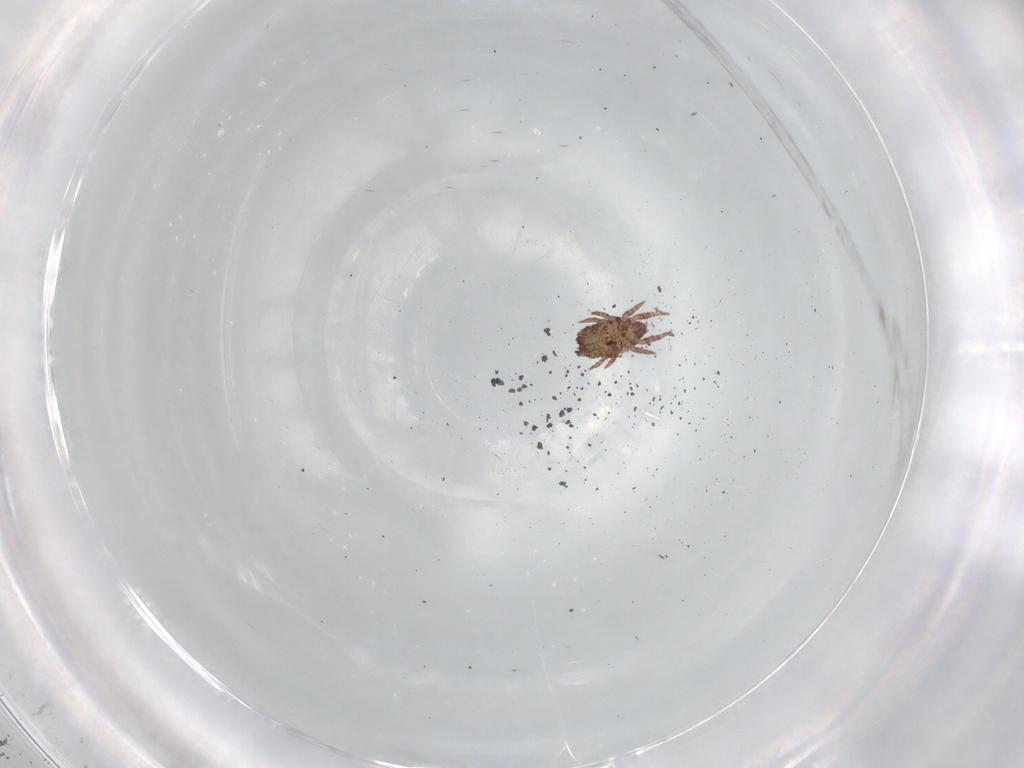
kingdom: Animalia
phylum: Arthropoda
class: Arachnida
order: Sarcoptiformes
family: Crotoniidae
